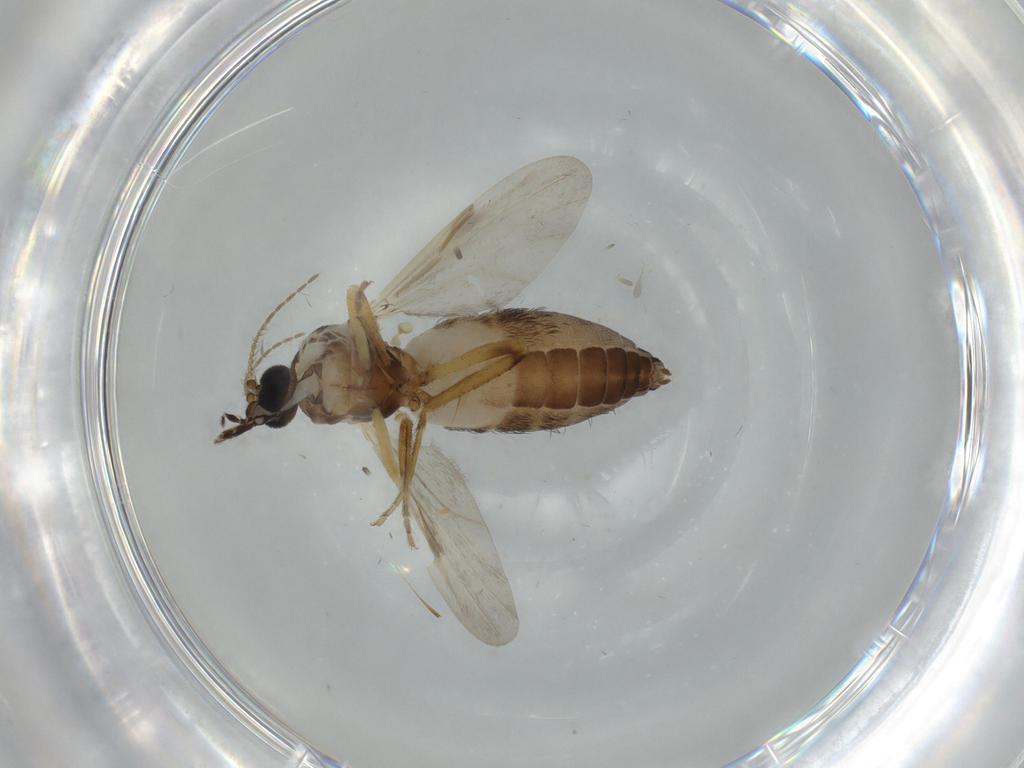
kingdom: Animalia
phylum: Arthropoda
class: Insecta
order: Diptera
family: Ceratopogonidae
